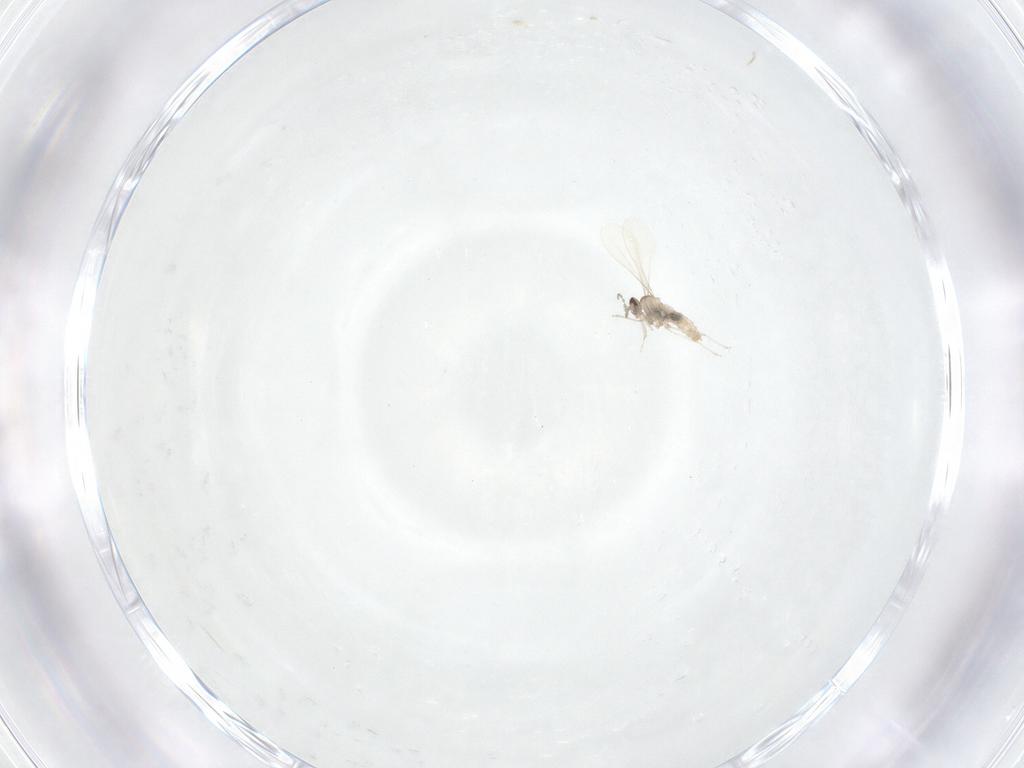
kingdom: Animalia
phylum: Arthropoda
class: Insecta
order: Diptera
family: Cecidomyiidae
